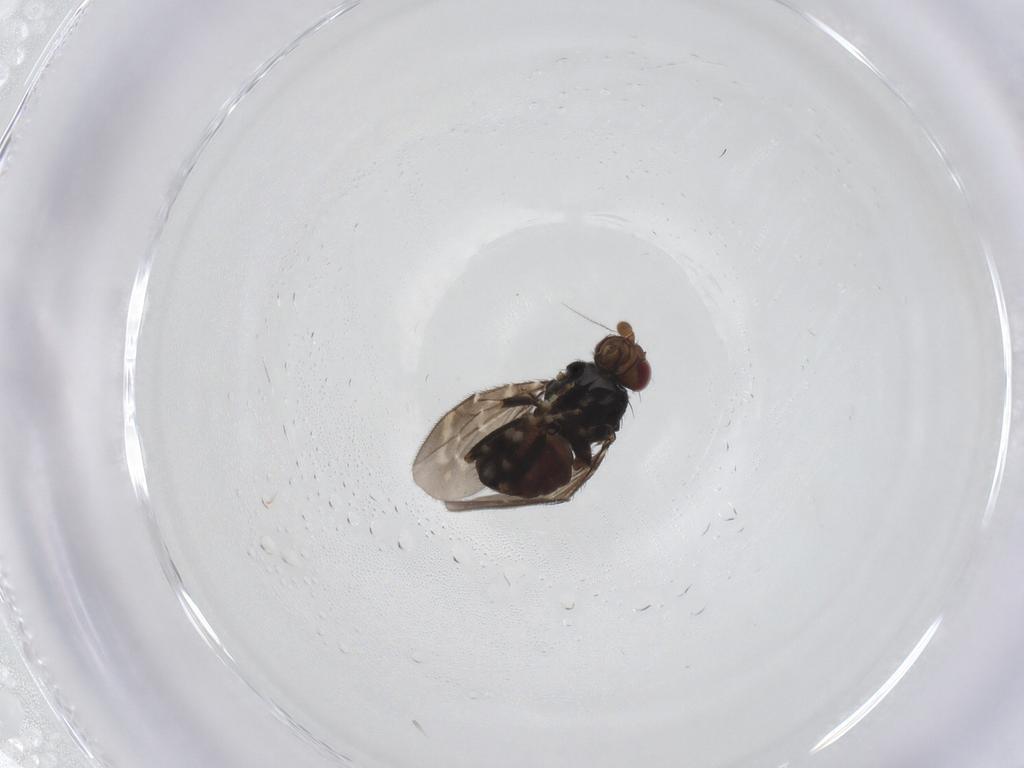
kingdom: Animalia
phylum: Arthropoda
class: Insecta
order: Diptera
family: Sphaeroceridae
